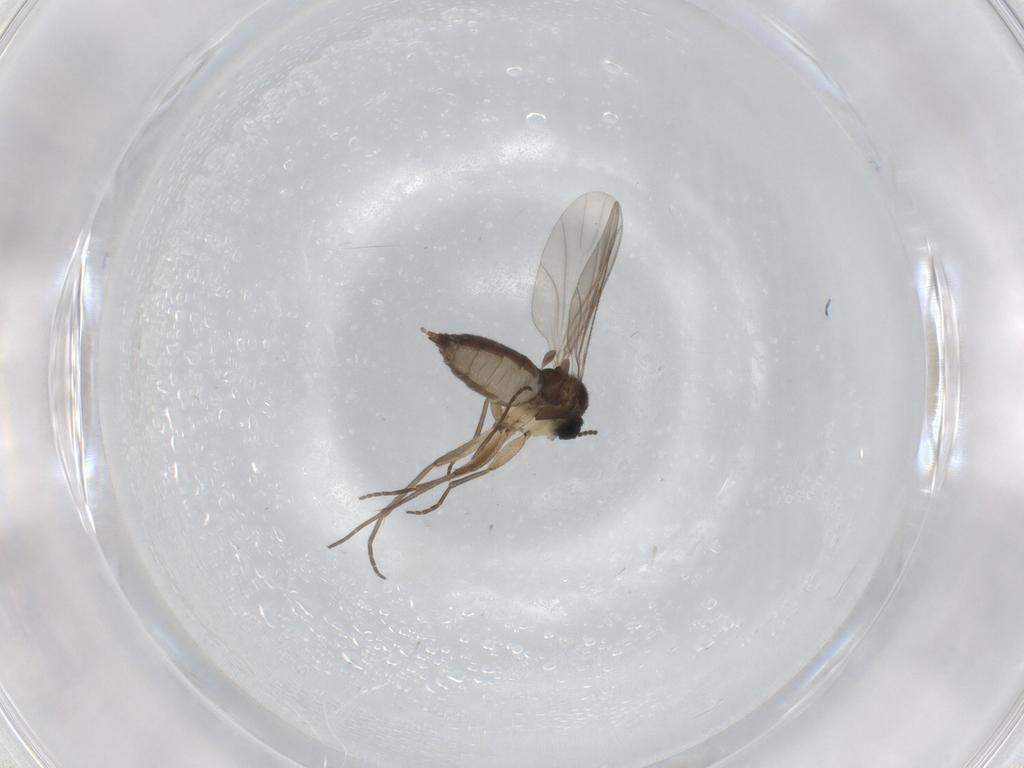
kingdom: Animalia
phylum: Arthropoda
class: Insecta
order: Diptera
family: Sciaridae
